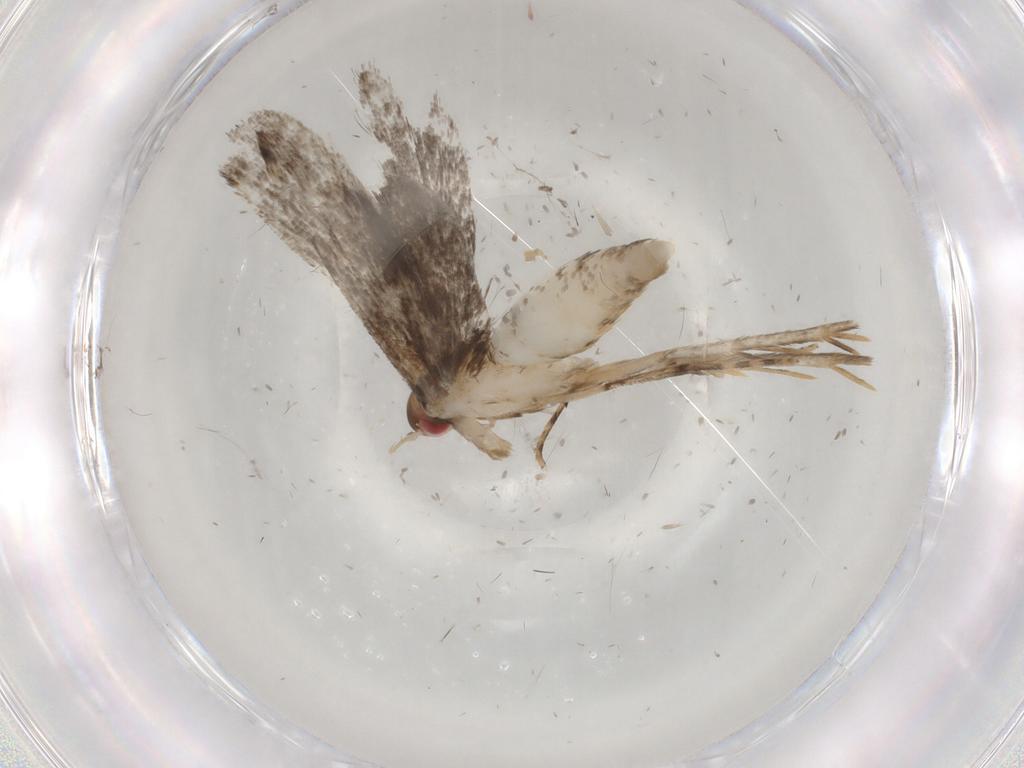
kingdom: Animalia
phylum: Arthropoda
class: Insecta
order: Lepidoptera
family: Gelechiidae
